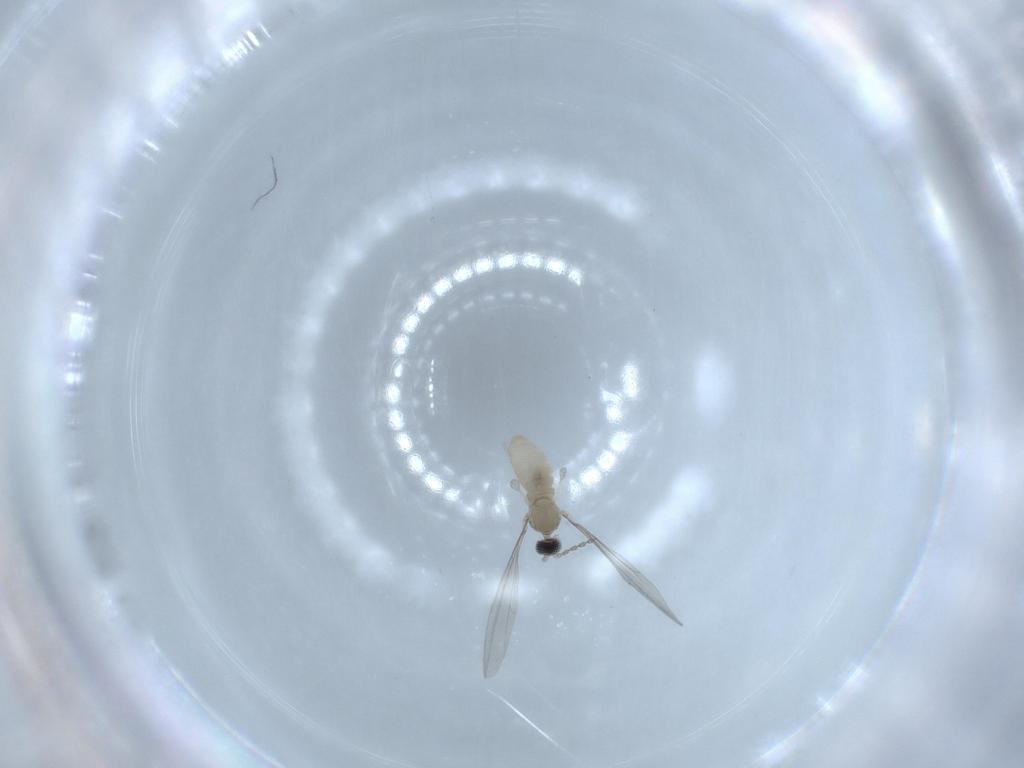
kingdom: Animalia
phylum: Arthropoda
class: Insecta
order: Diptera
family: Cecidomyiidae
